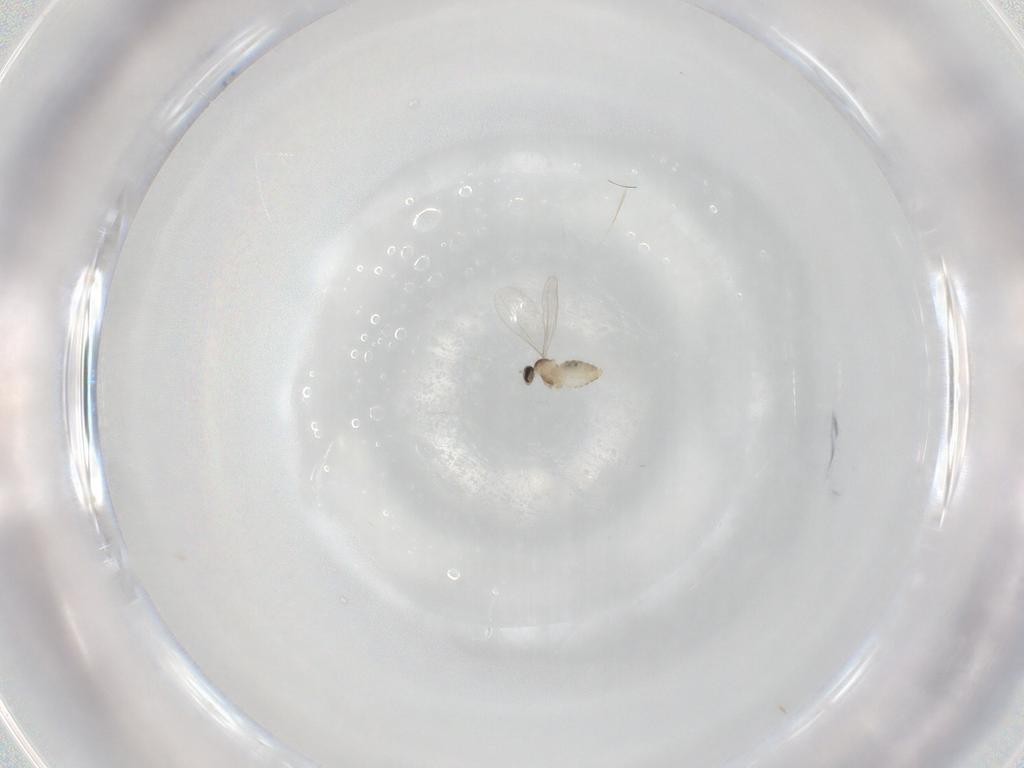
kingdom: Animalia
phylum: Arthropoda
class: Insecta
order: Diptera
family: Cecidomyiidae
